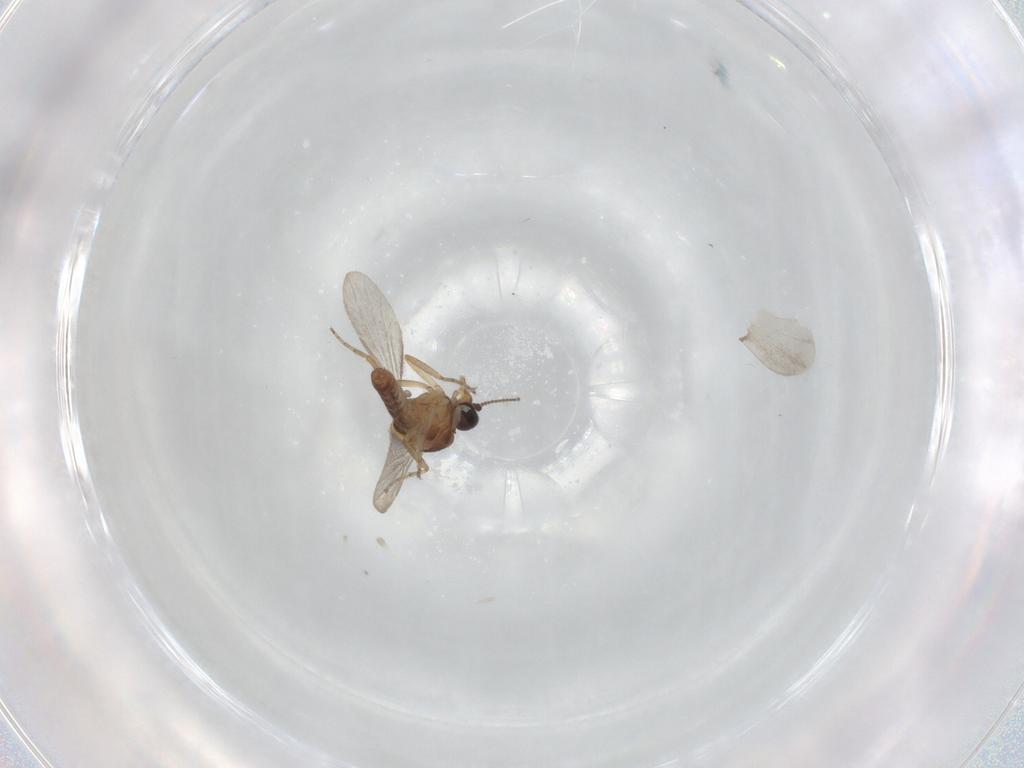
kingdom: Animalia
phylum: Arthropoda
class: Insecta
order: Diptera
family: Ceratopogonidae
